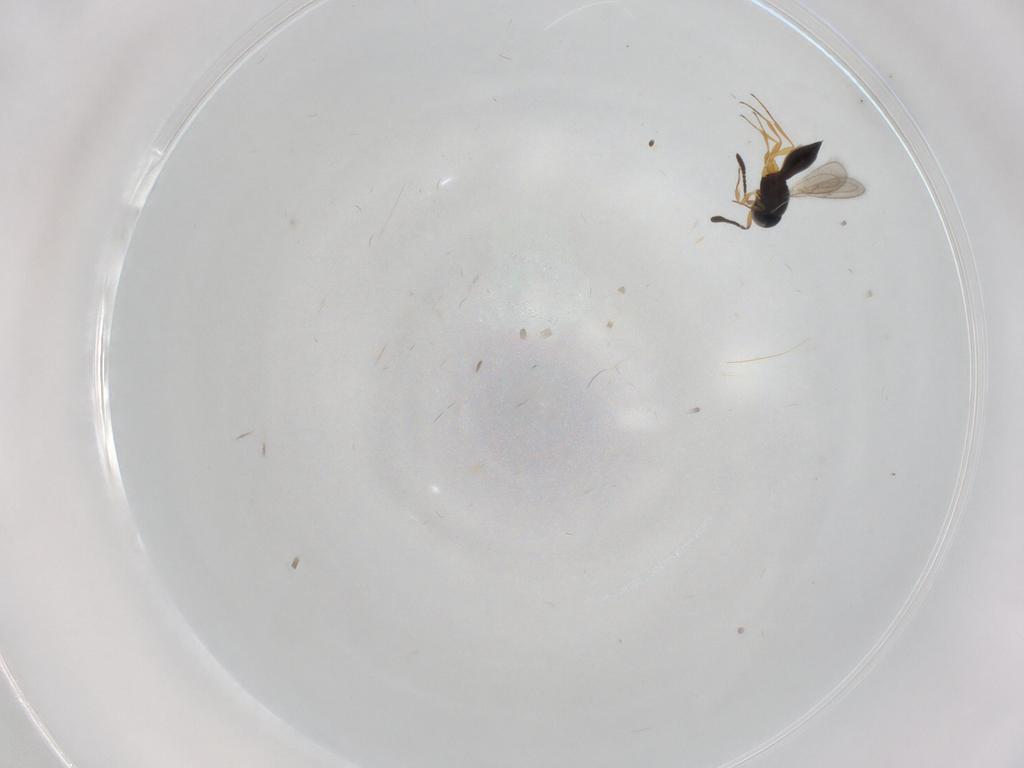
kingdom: Animalia
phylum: Arthropoda
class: Insecta
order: Hymenoptera
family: Scelionidae
